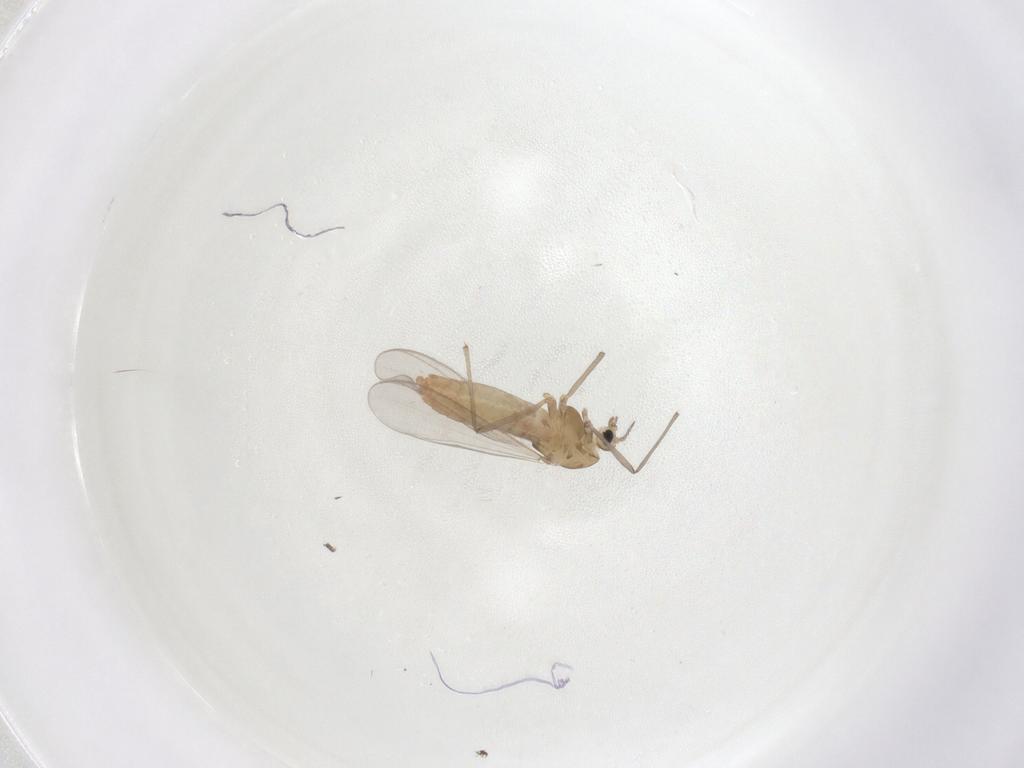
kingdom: Animalia
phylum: Arthropoda
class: Insecta
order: Diptera
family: Chironomidae
